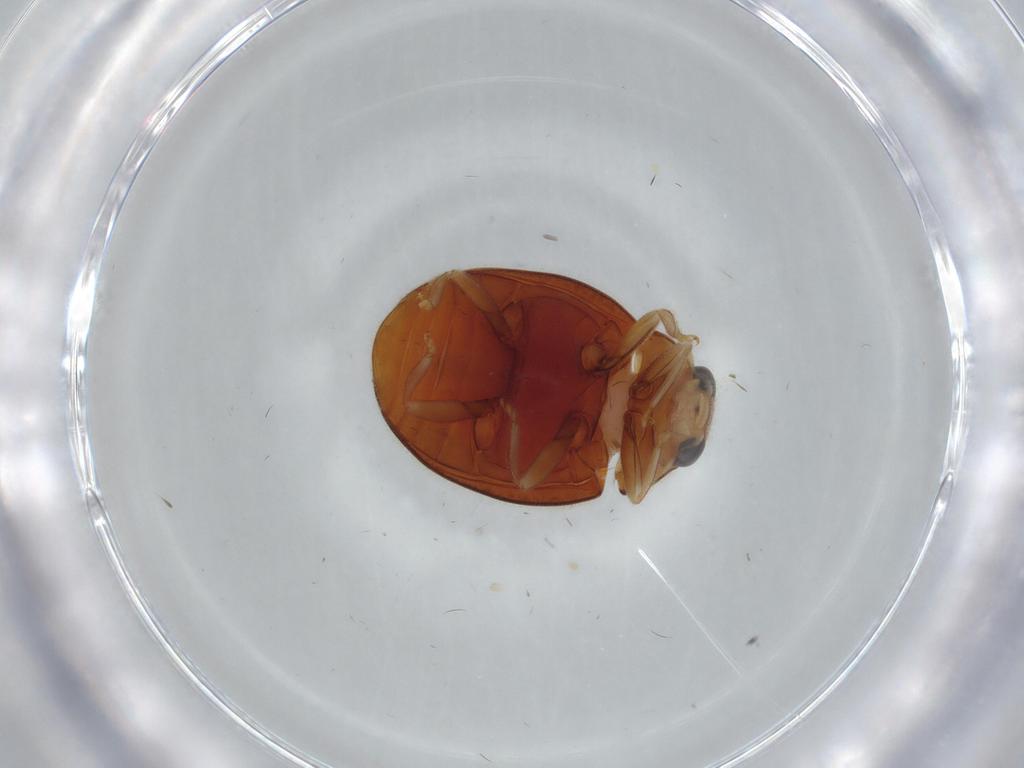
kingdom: Animalia
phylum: Arthropoda
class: Insecta
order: Coleoptera
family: Coccinellidae
